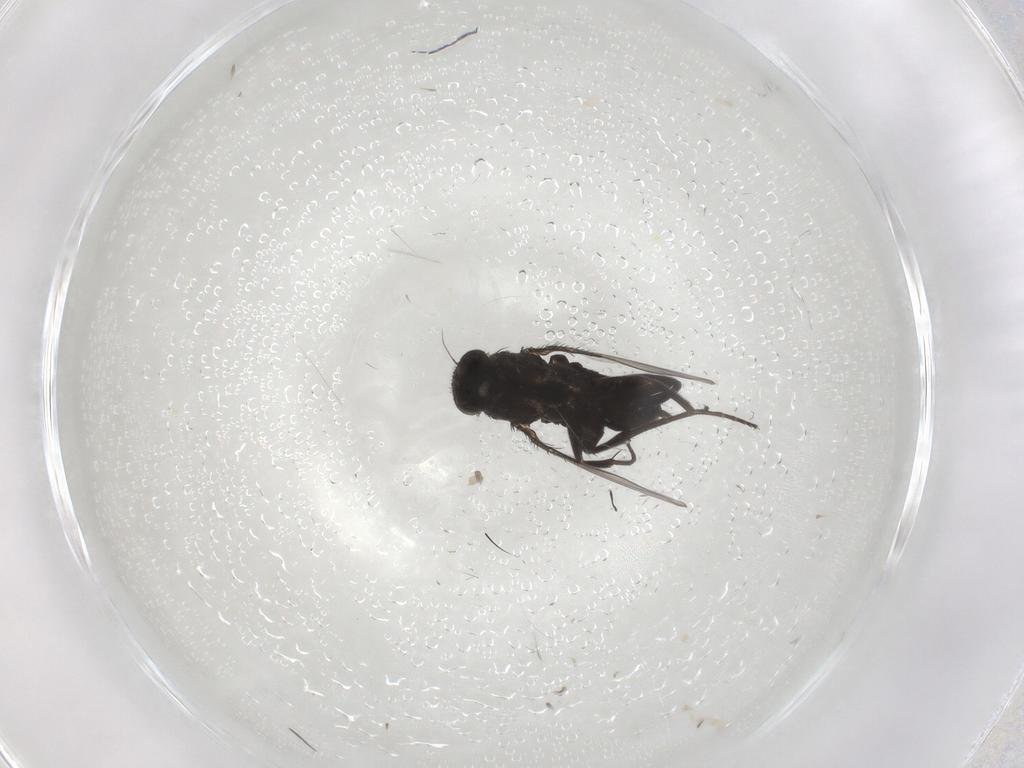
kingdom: Animalia
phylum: Arthropoda
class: Insecta
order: Diptera
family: Phoridae
